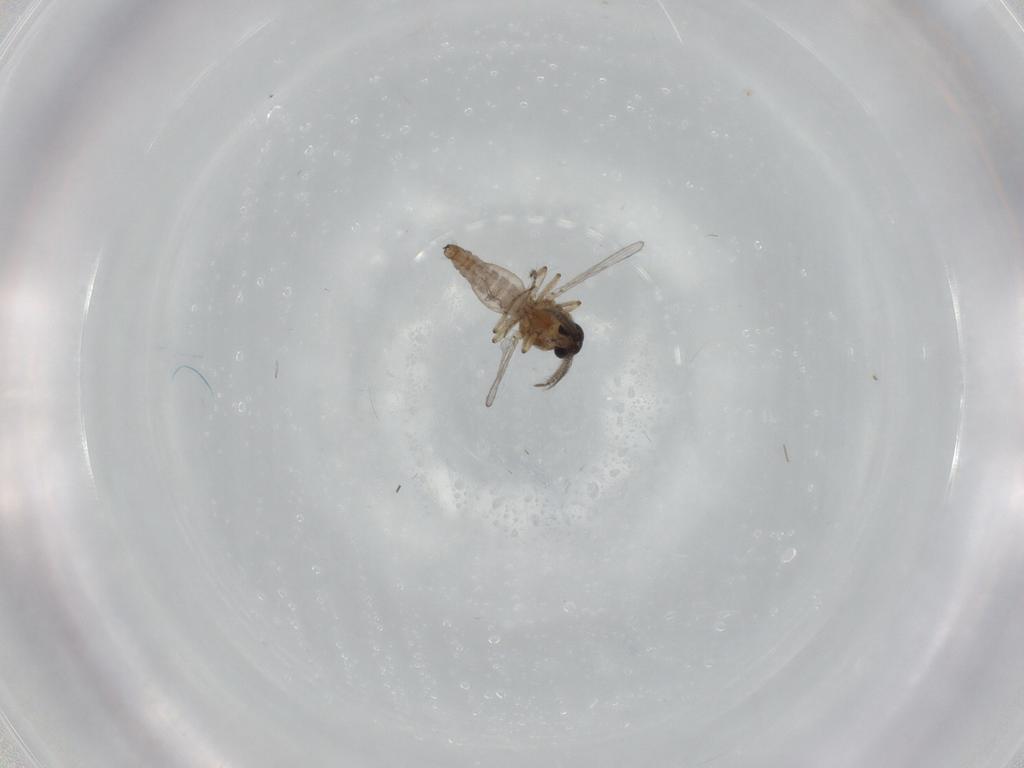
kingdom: Animalia
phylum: Arthropoda
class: Insecta
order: Diptera
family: Ceratopogonidae
